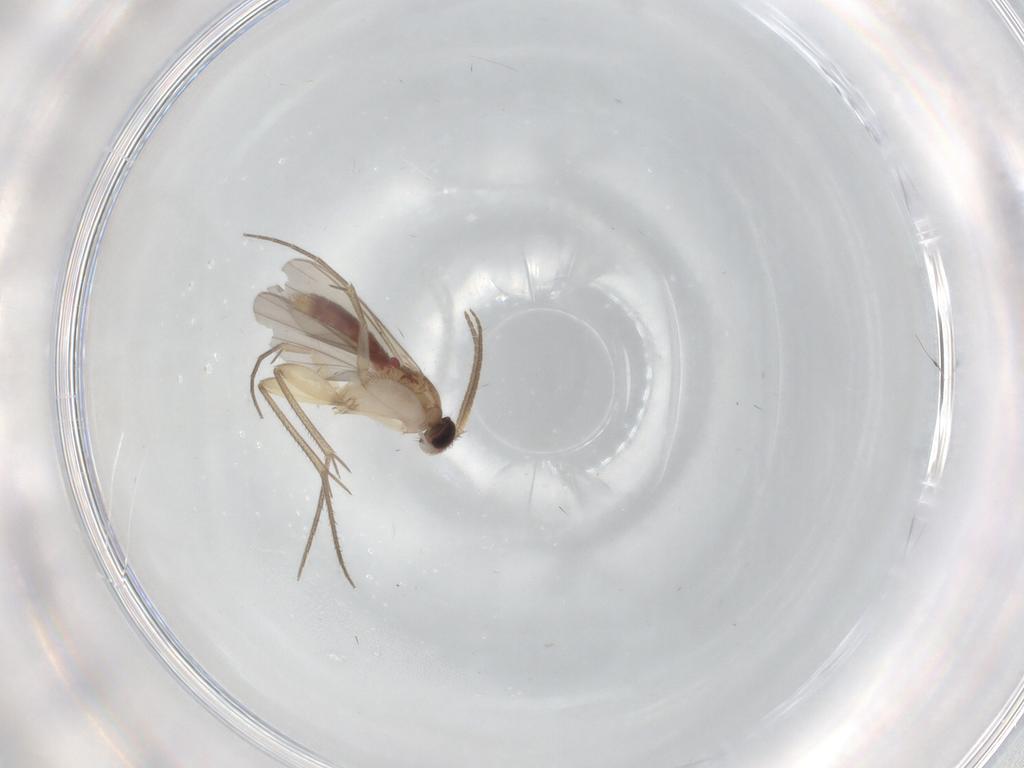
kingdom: Animalia
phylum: Arthropoda
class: Insecta
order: Diptera
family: Mycetophilidae
